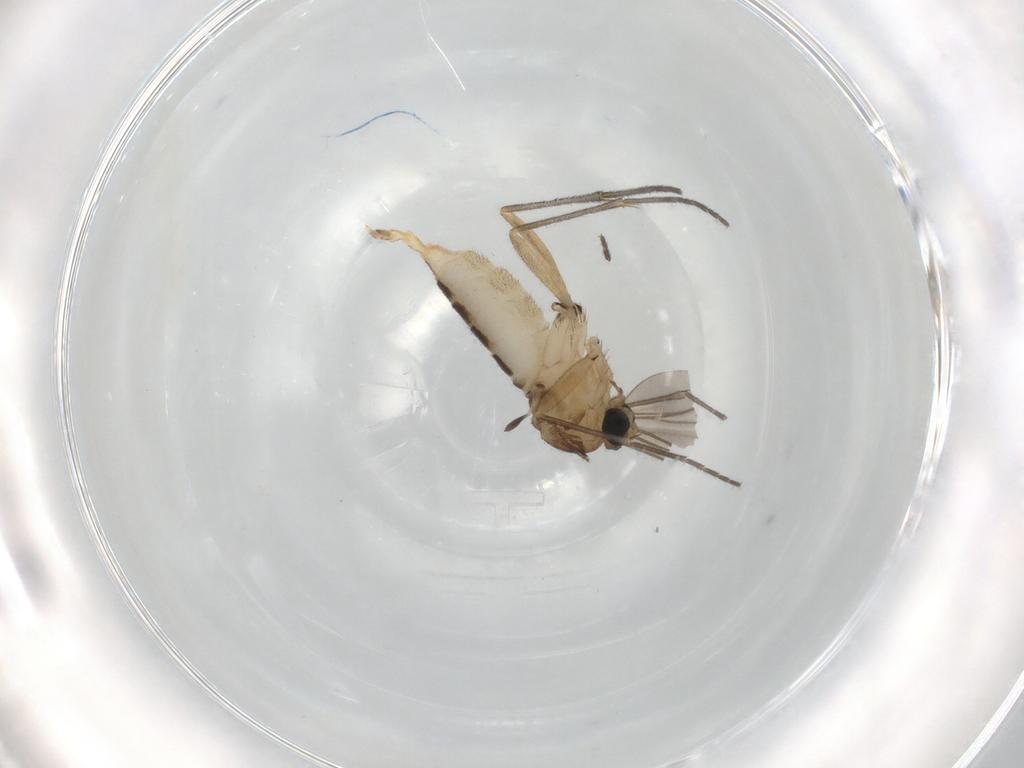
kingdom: Animalia
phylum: Arthropoda
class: Insecta
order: Diptera
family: Sciaridae
